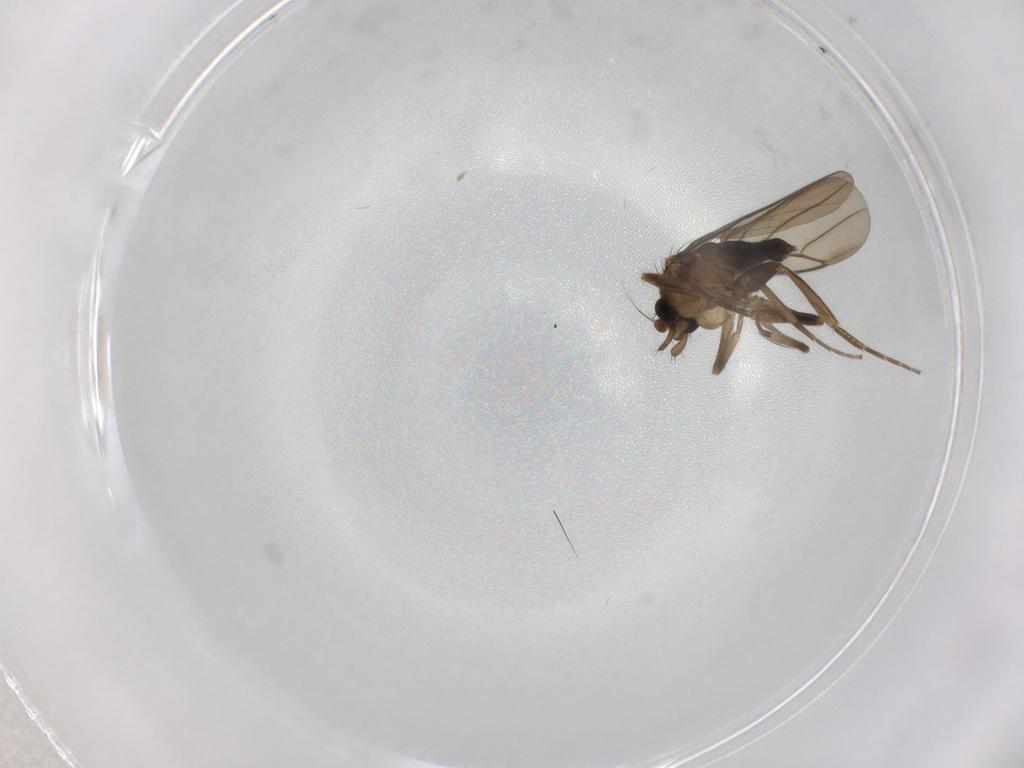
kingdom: Animalia
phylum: Arthropoda
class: Insecta
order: Diptera
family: Phoridae
